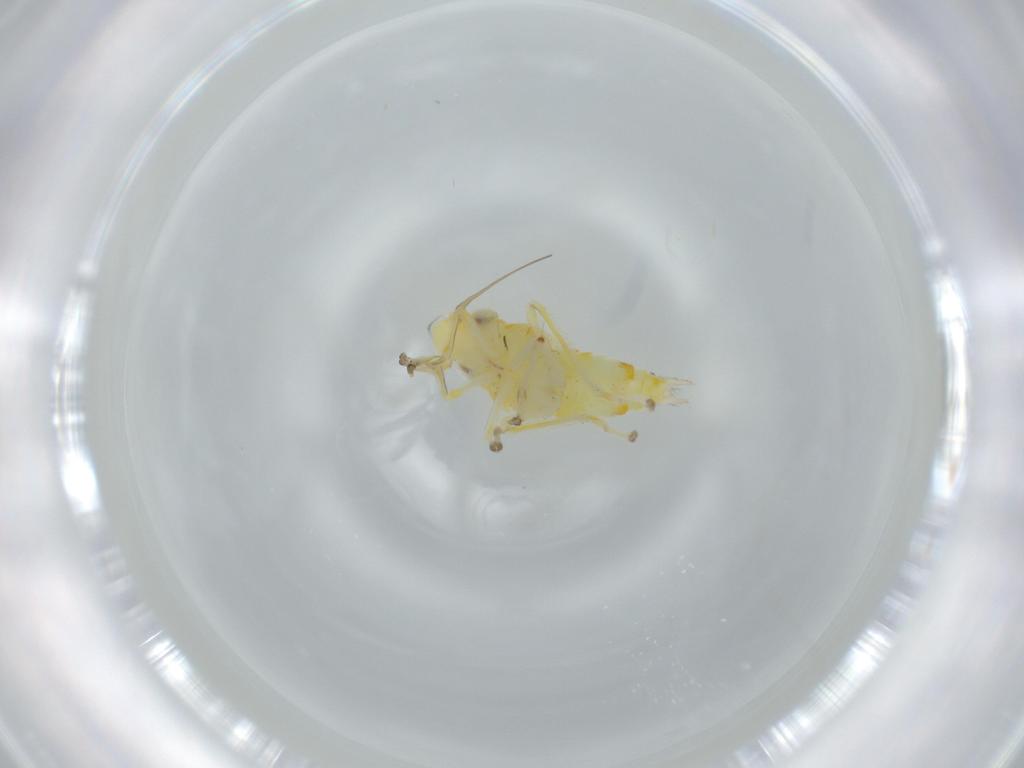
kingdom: Animalia
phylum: Arthropoda
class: Insecta
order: Hemiptera
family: Cicadellidae
